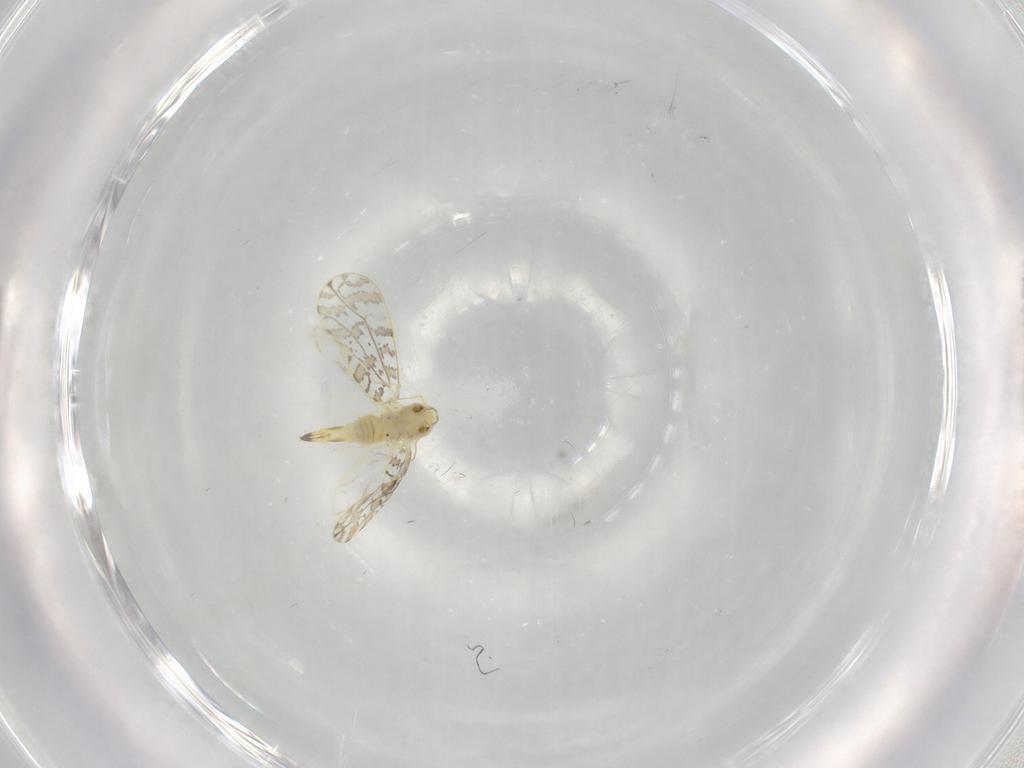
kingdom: Animalia
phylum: Arthropoda
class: Insecta
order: Hemiptera
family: Aleyrodidae
